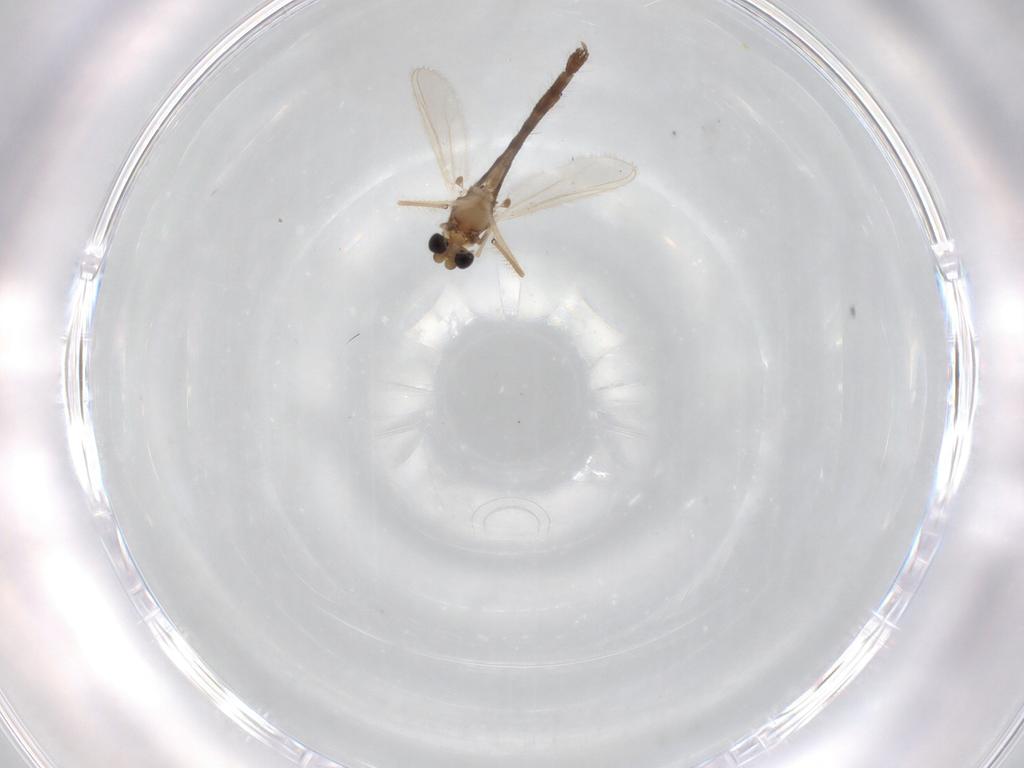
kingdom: Animalia
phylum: Arthropoda
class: Insecta
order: Diptera
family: Chironomidae
